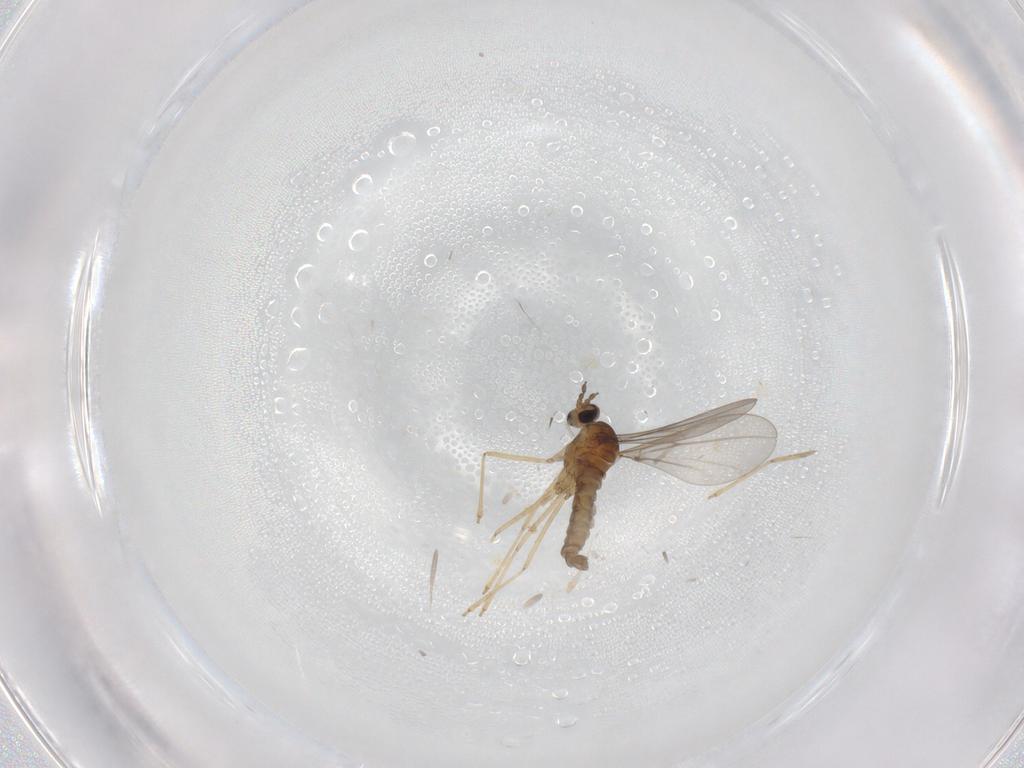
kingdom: Animalia
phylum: Arthropoda
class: Insecta
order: Diptera
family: Cecidomyiidae
